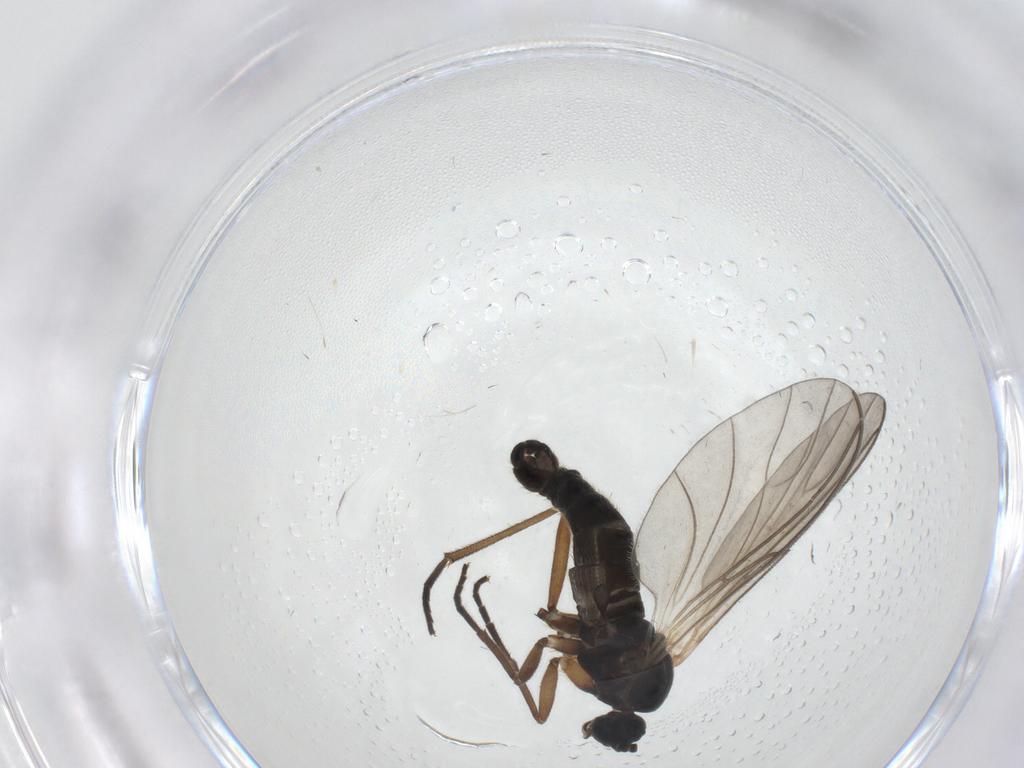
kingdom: Animalia
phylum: Arthropoda
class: Insecta
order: Diptera
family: Sciaridae
